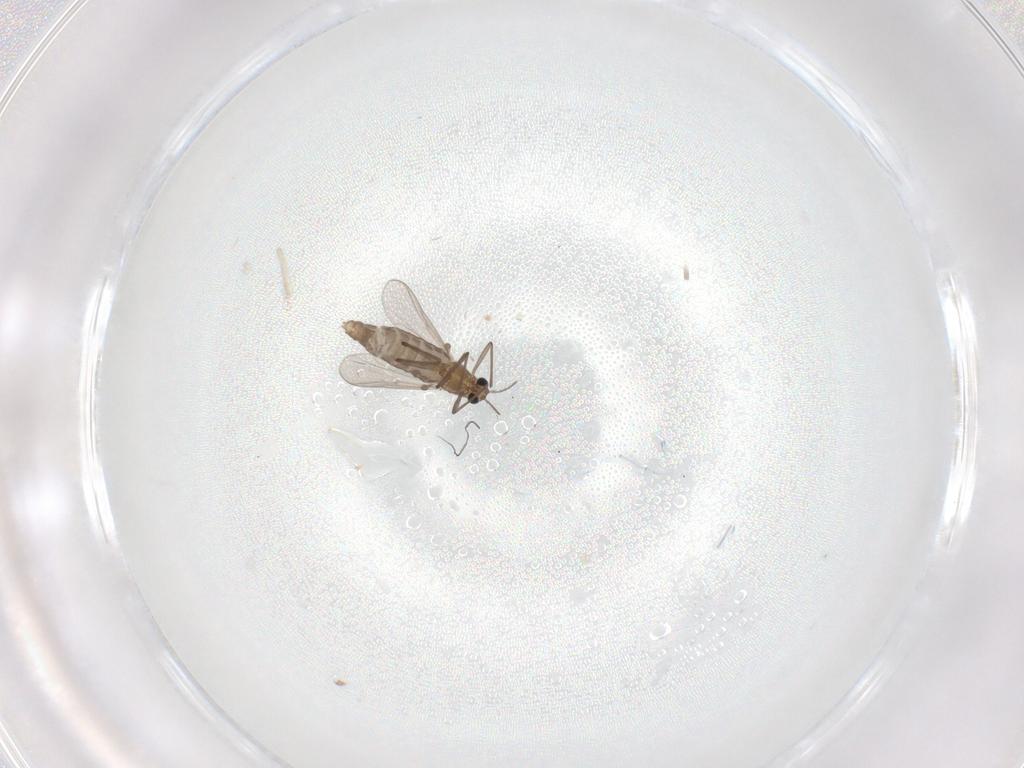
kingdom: Animalia
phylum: Arthropoda
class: Insecta
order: Diptera
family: Chironomidae
